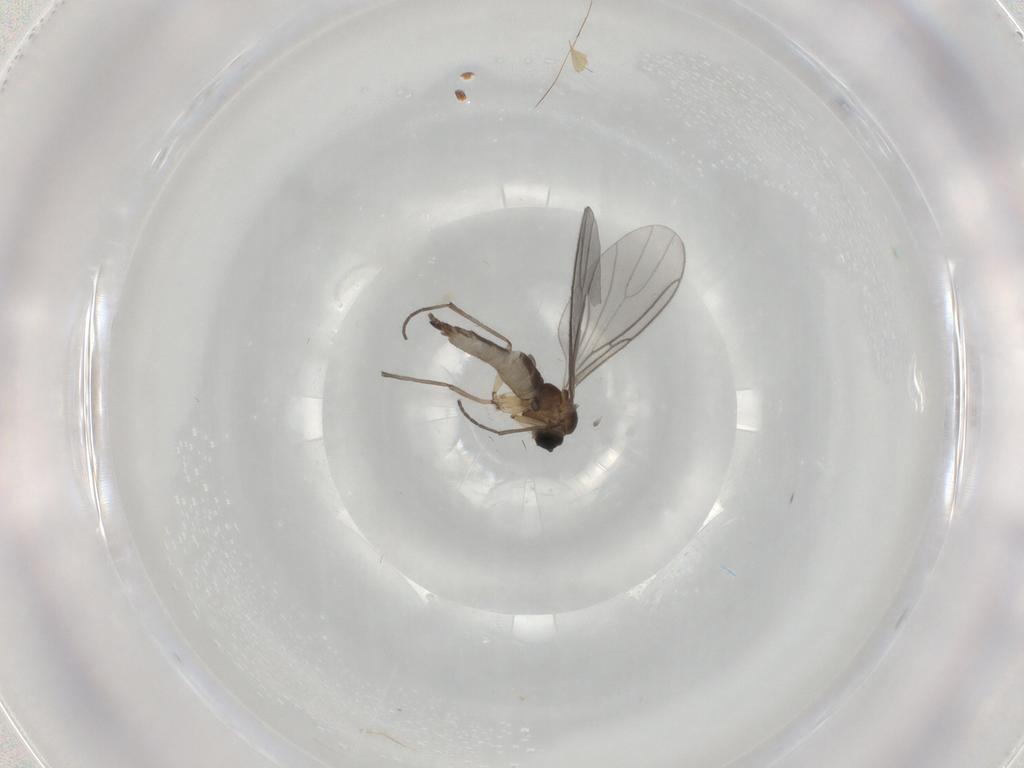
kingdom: Animalia
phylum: Arthropoda
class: Insecta
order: Diptera
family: Sciaridae
